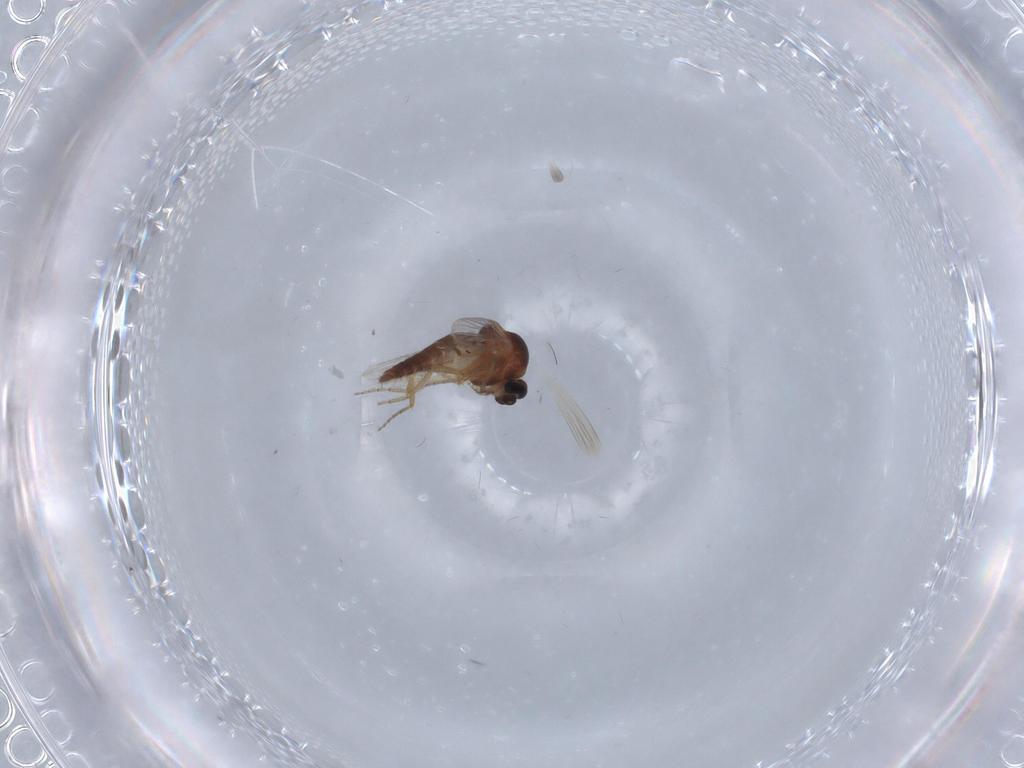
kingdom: Animalia
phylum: Arthropoda
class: Insecta
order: Diptera
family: Ceratopogonidae
